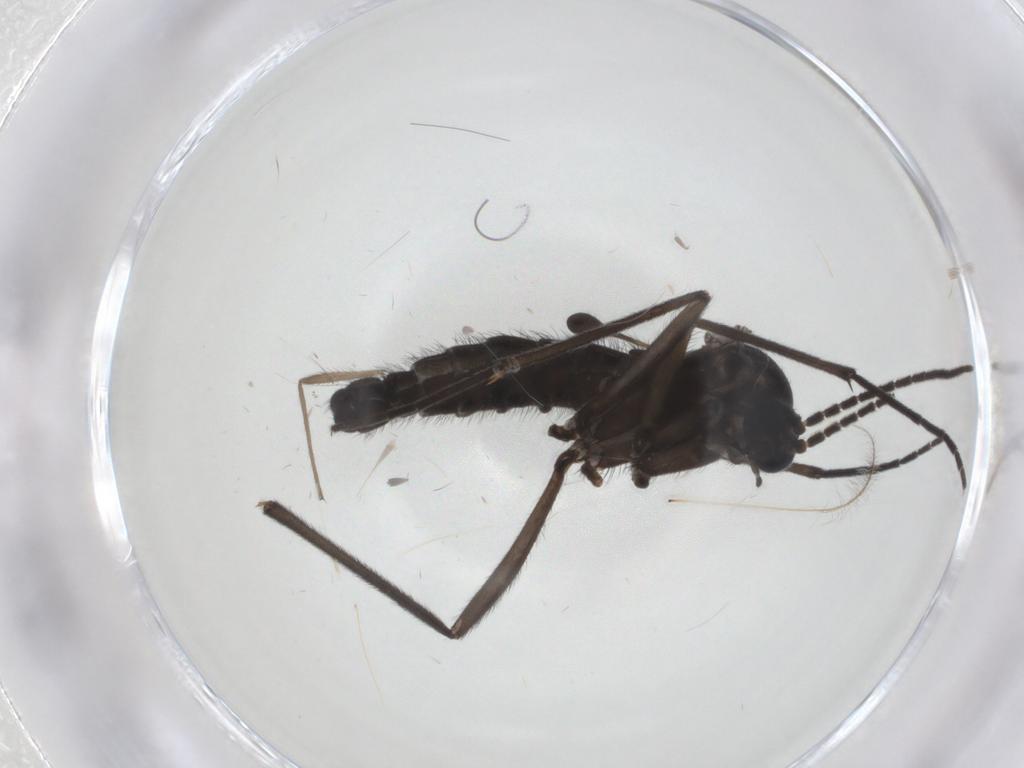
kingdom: Animalia
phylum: Arthropoda
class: Insecta
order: Diptera
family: Sciaridae
